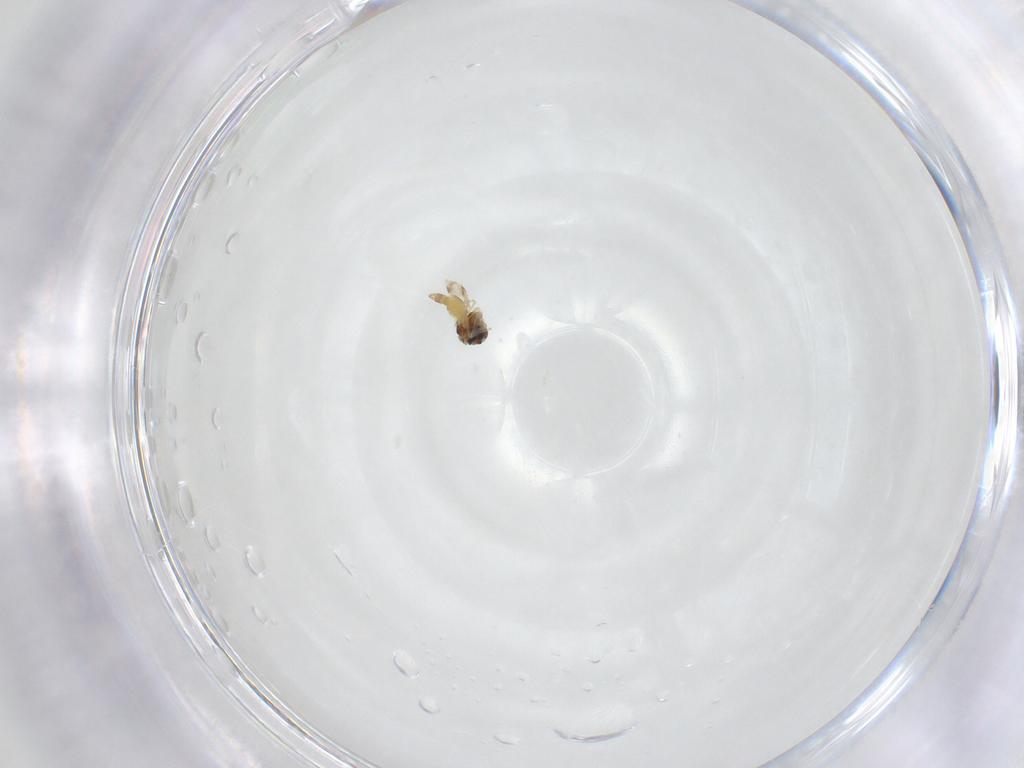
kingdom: Animalia
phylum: Arthropoda
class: Insecta
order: Hemiptera
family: Aleyrodidae
